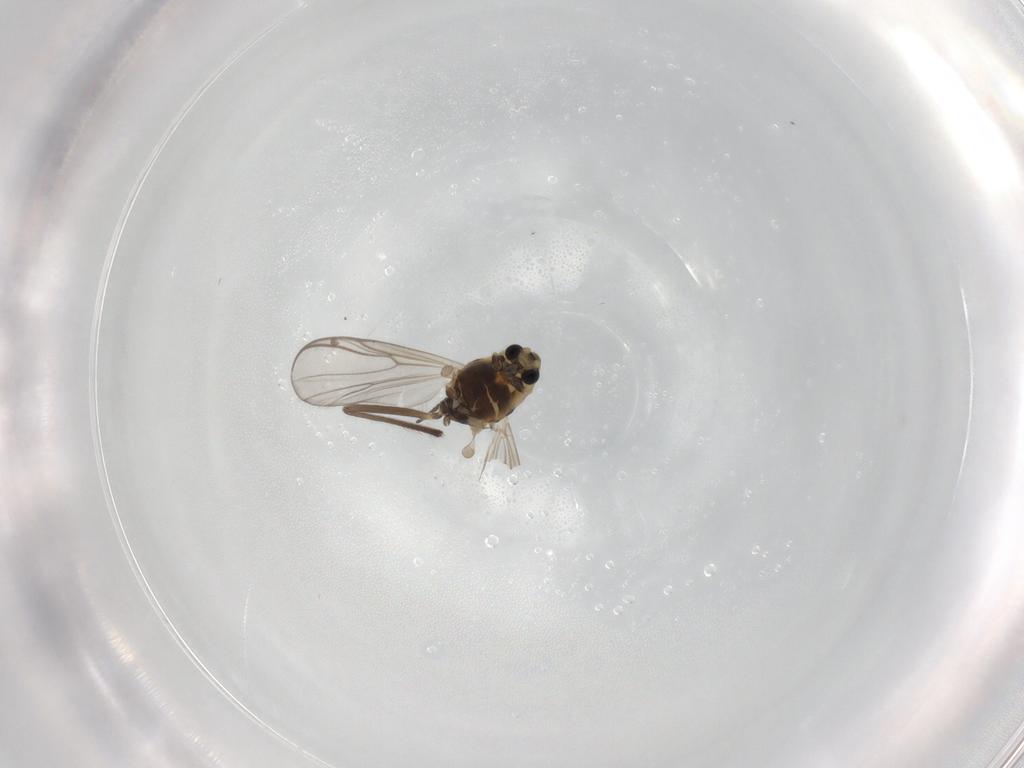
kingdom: Animalia
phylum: Arthropoda
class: Insecta
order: Diptera
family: Chironomidae
